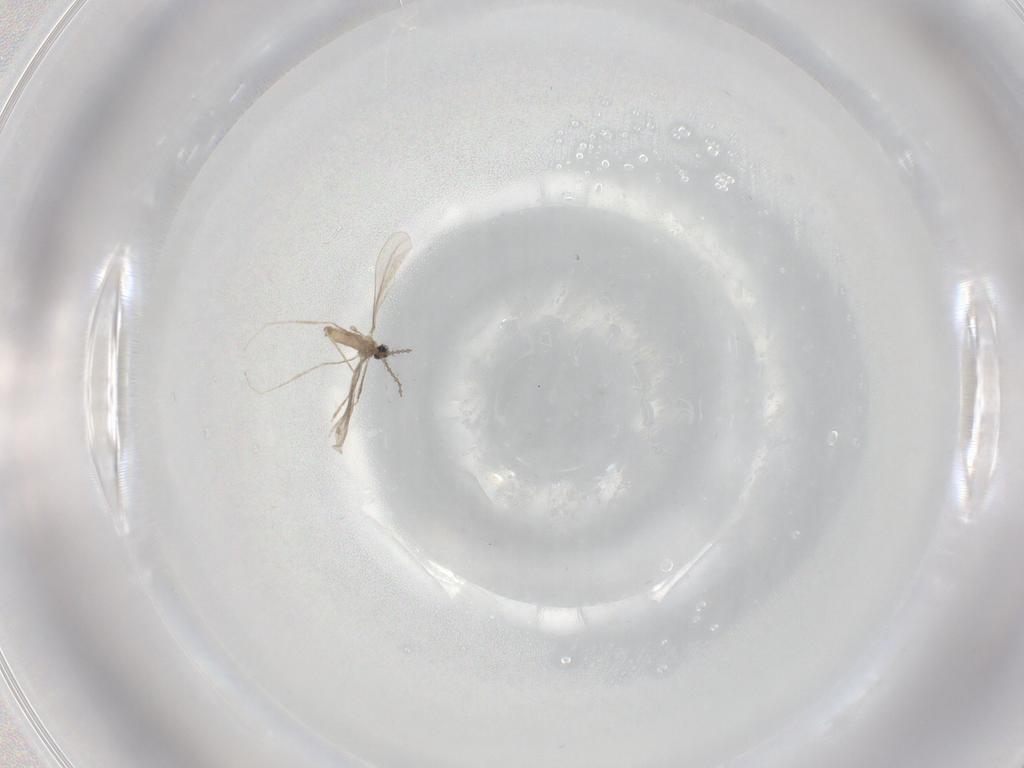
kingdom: Animalia
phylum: Arthropoda
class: Insecta
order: Diptera
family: Cecidomyiidae
